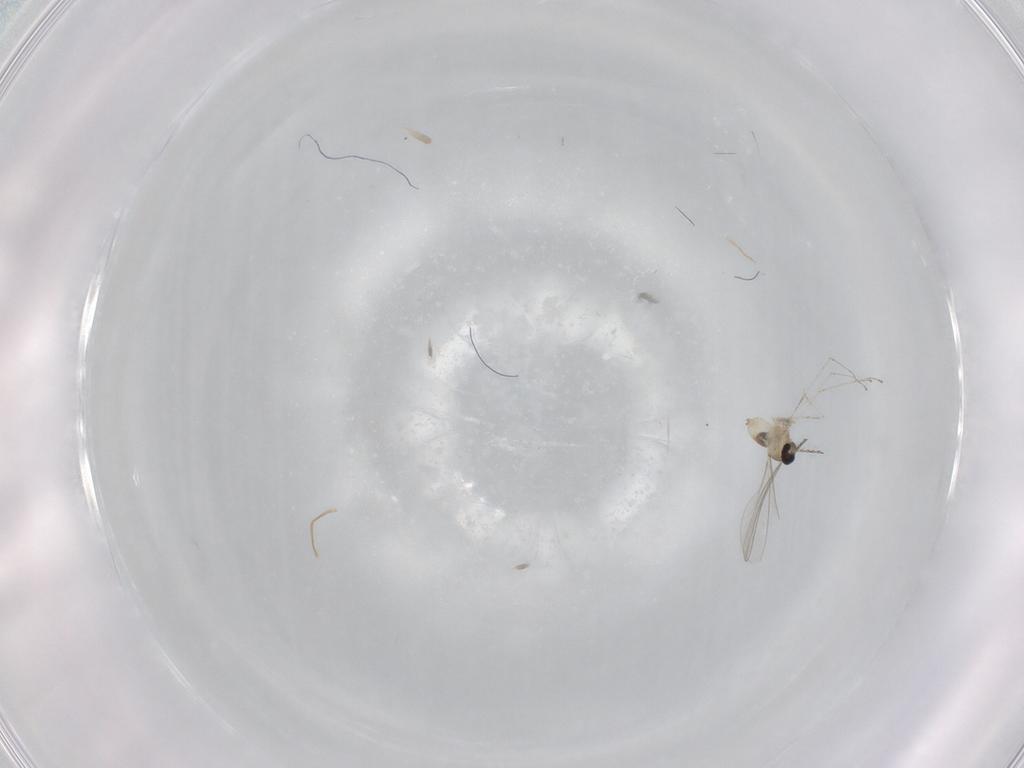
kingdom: Animalia
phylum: Arthropoda
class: Insecta
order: Diptera
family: Cecidomyiidae
